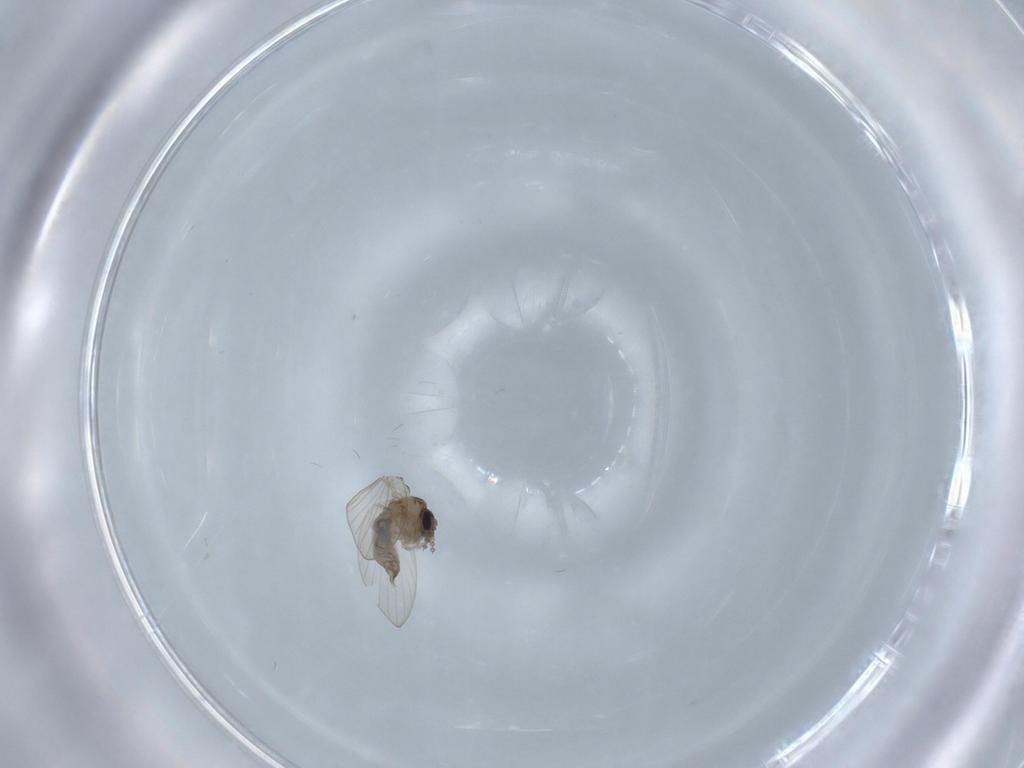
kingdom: Animalia
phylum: Arthropoda
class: Insecta
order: Diptera
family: Psychodidae
